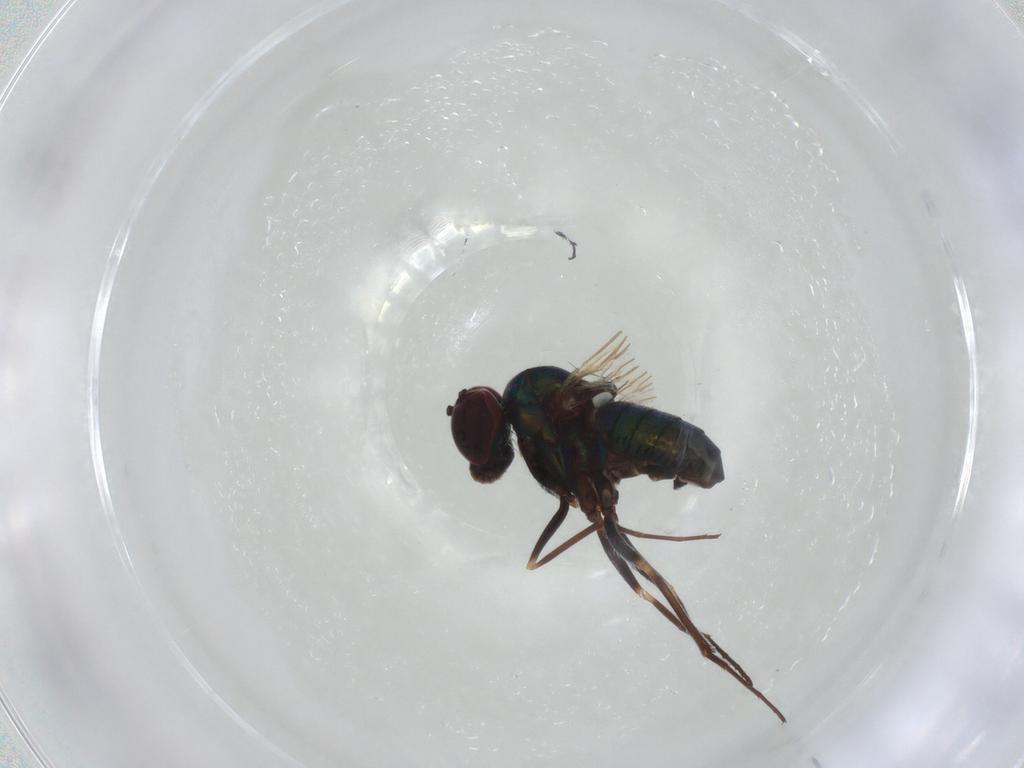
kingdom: Animalia
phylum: Arthropoda
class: Insecta
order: Diptera
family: Dolichopodidae
